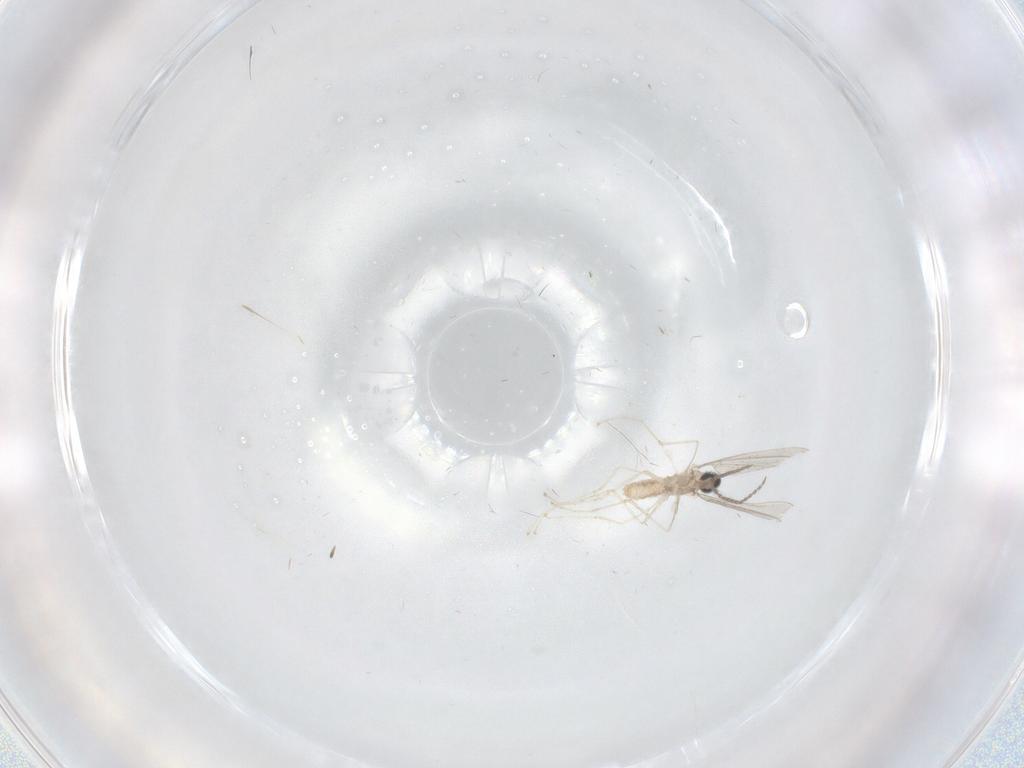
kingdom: Animalia
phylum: Arthropoda
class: Insecta
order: Diptera
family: Cecidomyiidae
